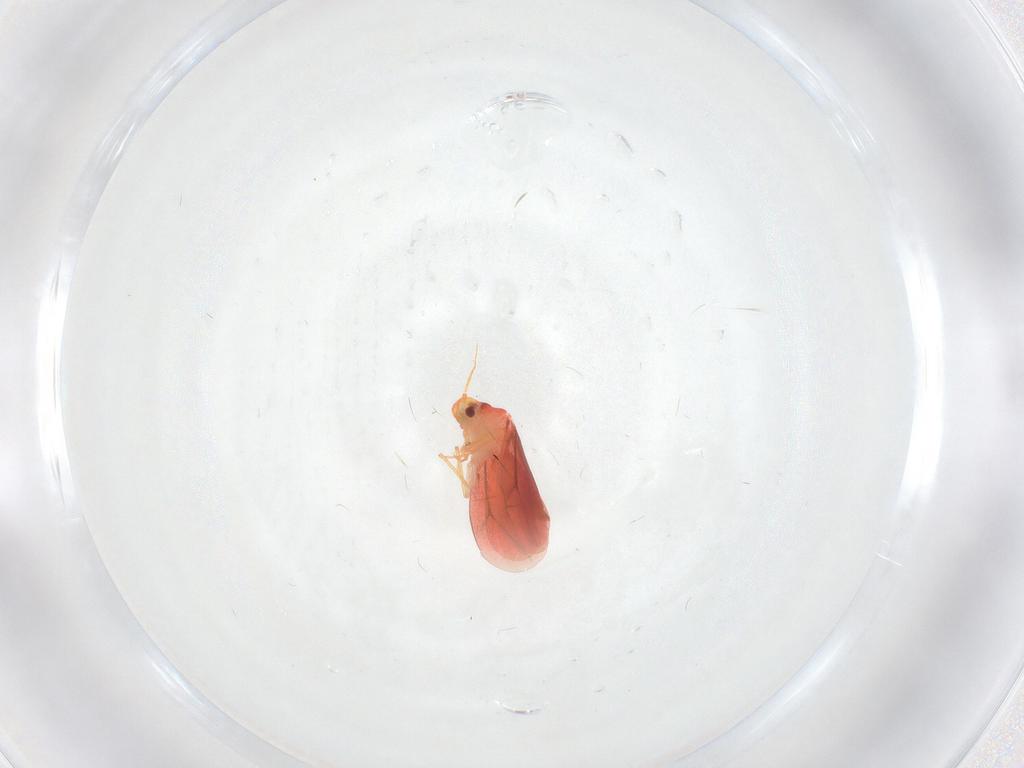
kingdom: Animalia
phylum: Arthropoda
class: Insecta
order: Hemiptera
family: Aleyrodidae
